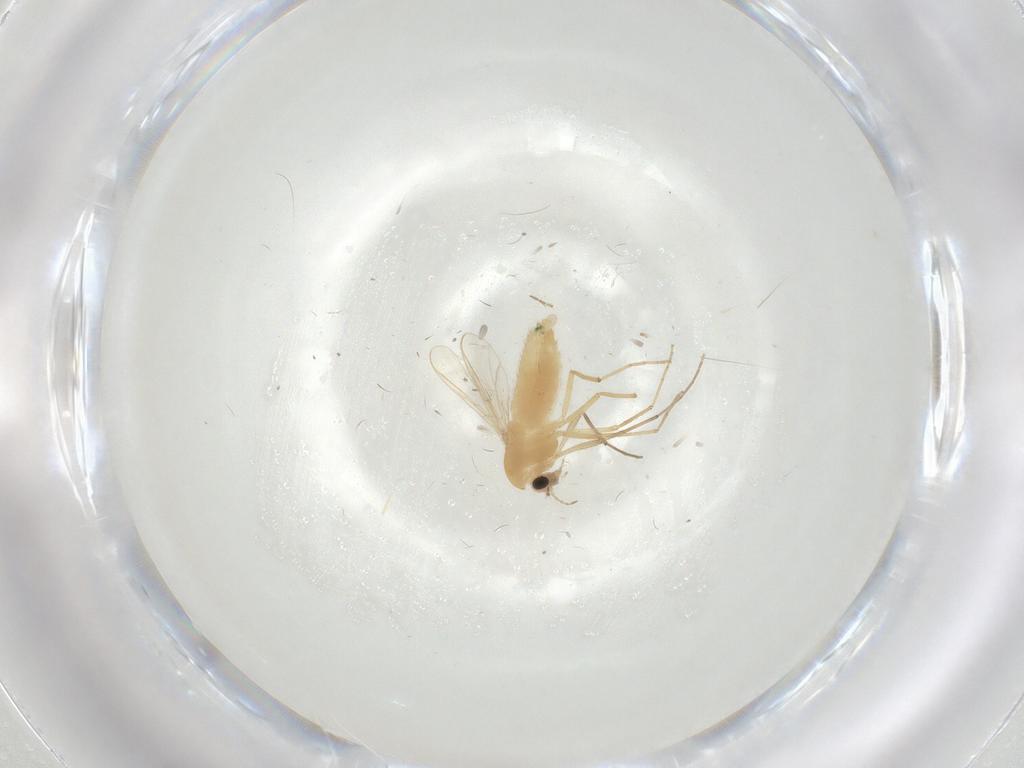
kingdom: Animalia
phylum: Arthropoda
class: Insecta
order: Diptera
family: Chironomidae
